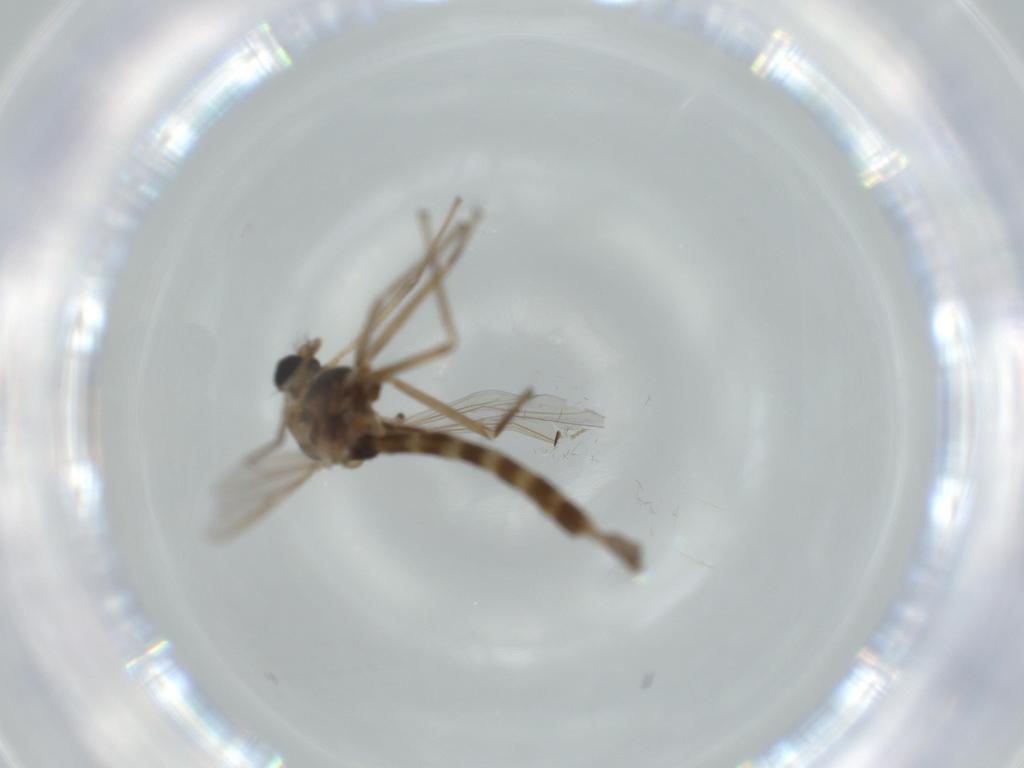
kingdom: Animalia
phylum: Arthropoda
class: Insecta
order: Diptera
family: Chironomidae
